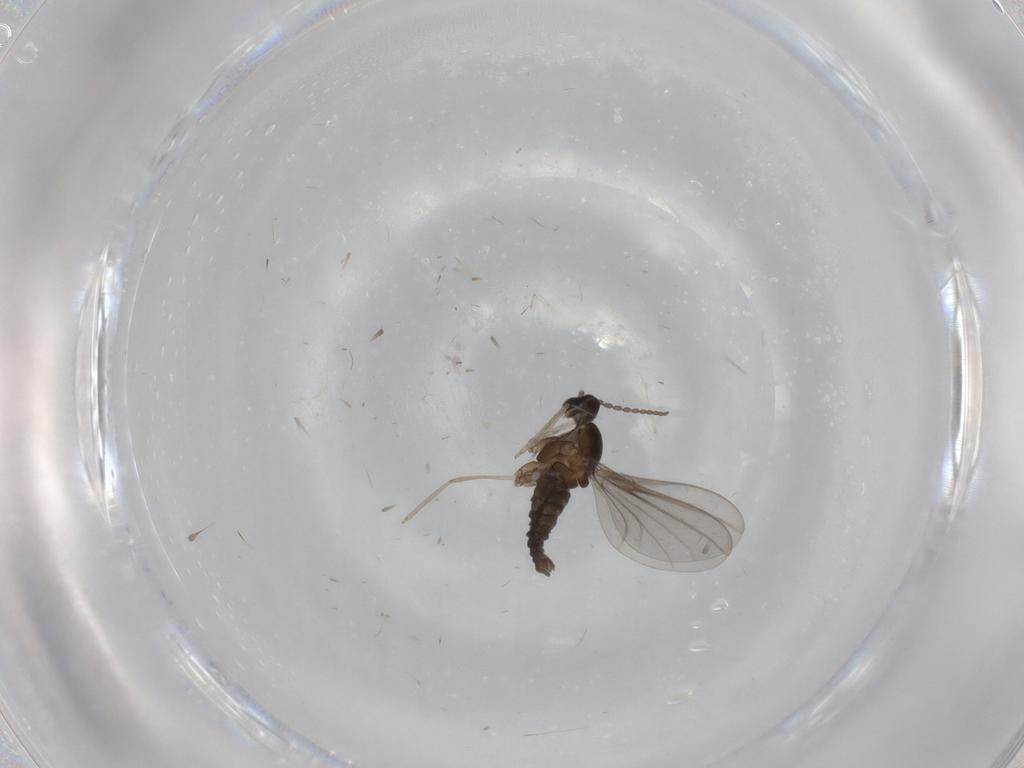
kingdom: Animalia
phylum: Arthropoda
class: Insecta
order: Diptera
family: Cecidomyiidae
